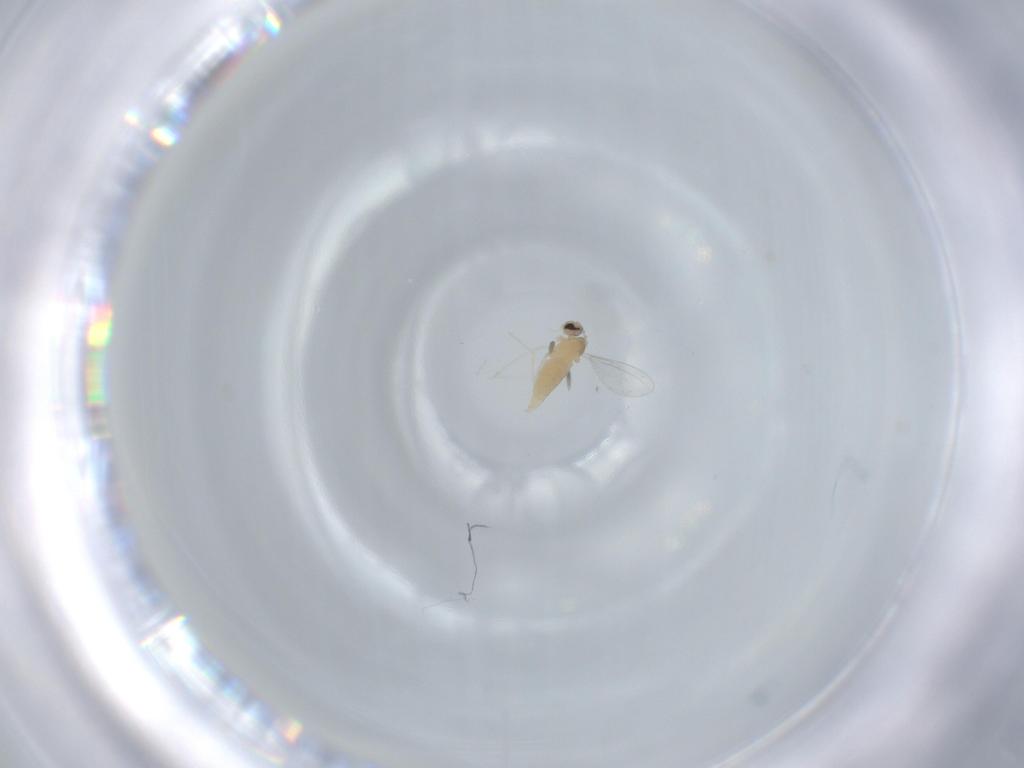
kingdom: Animalia
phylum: Arthropoda
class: Insecta
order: Diptera
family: Cecidomyiidae
